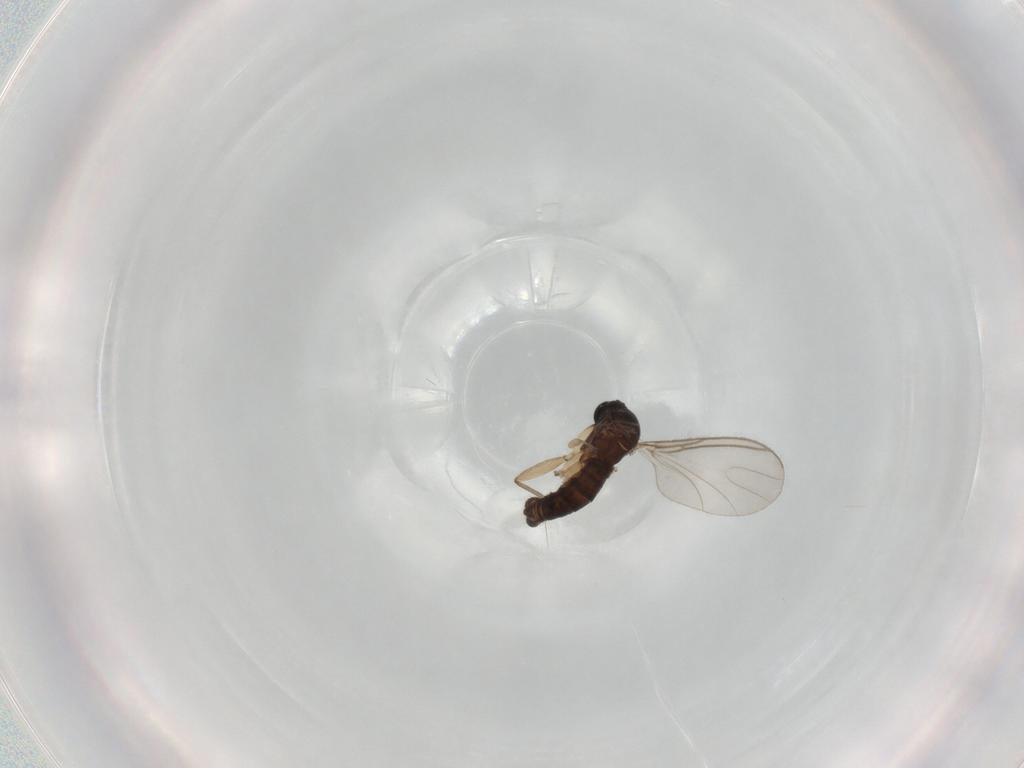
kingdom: Animalia
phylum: Arthropoda
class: Insecta
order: Diptera
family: Sciaridae
